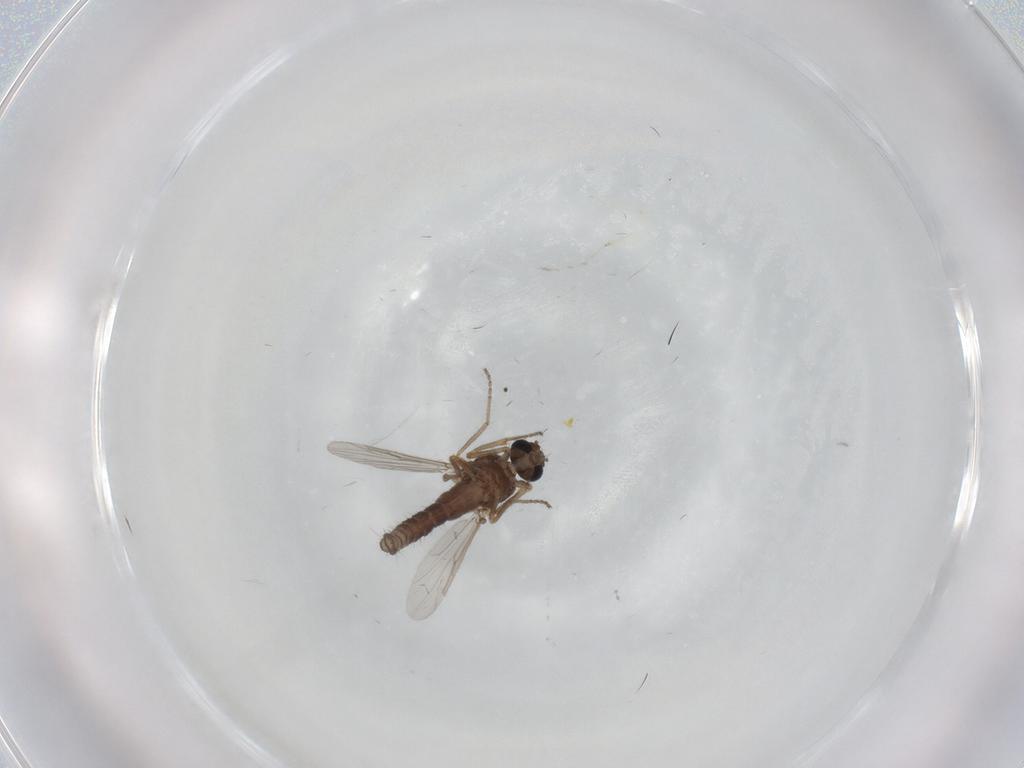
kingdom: Animalia
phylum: Arthropoda
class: Insecta
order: Diptera
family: Ceratopogonidae
